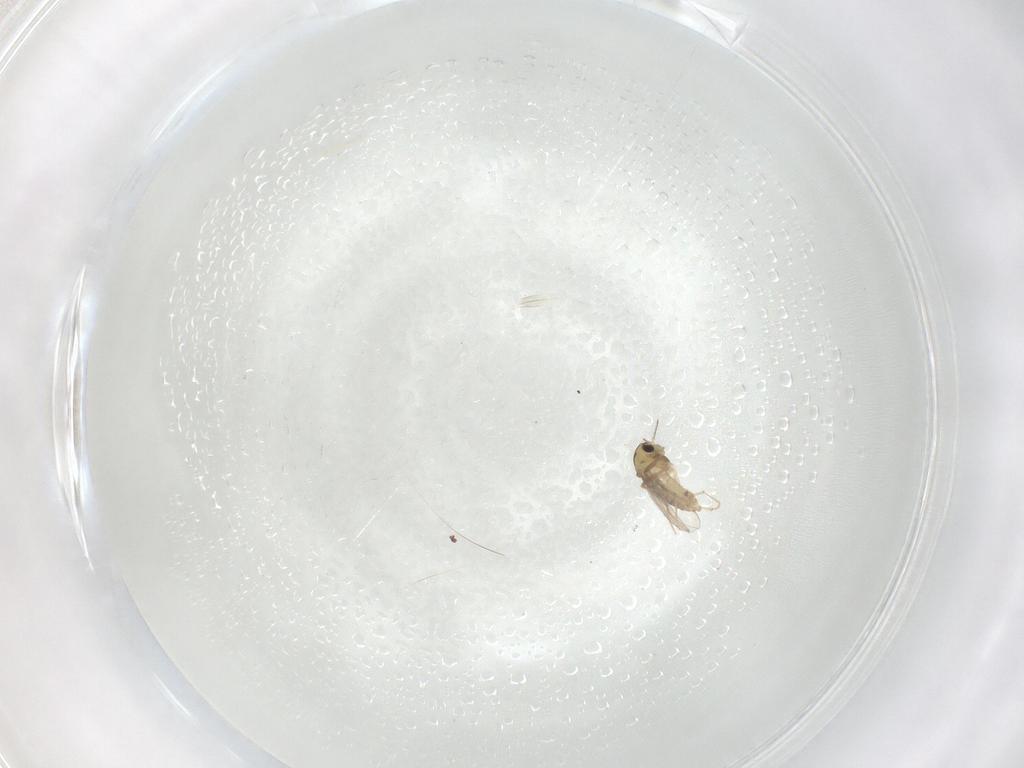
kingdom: Animalia
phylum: Arthropoda
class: Insecta
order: Diptera
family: Chironomidae
